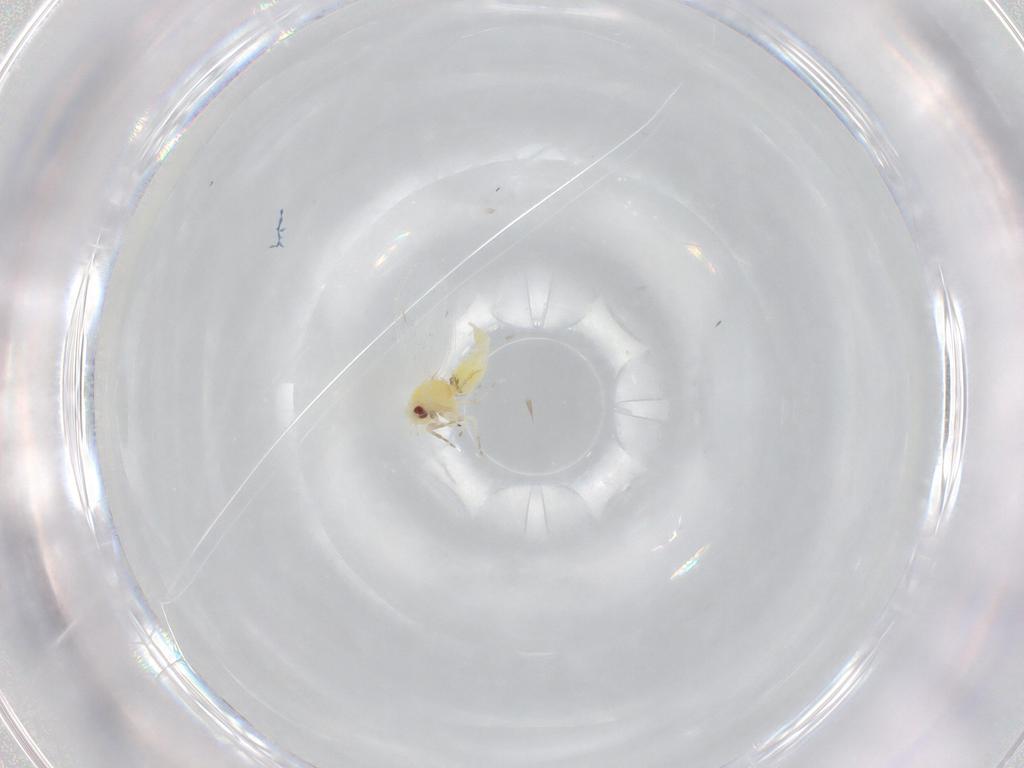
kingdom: Animalia
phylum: Arthropoda
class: Insecta
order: Hemiptera
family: Aleyrodidae
